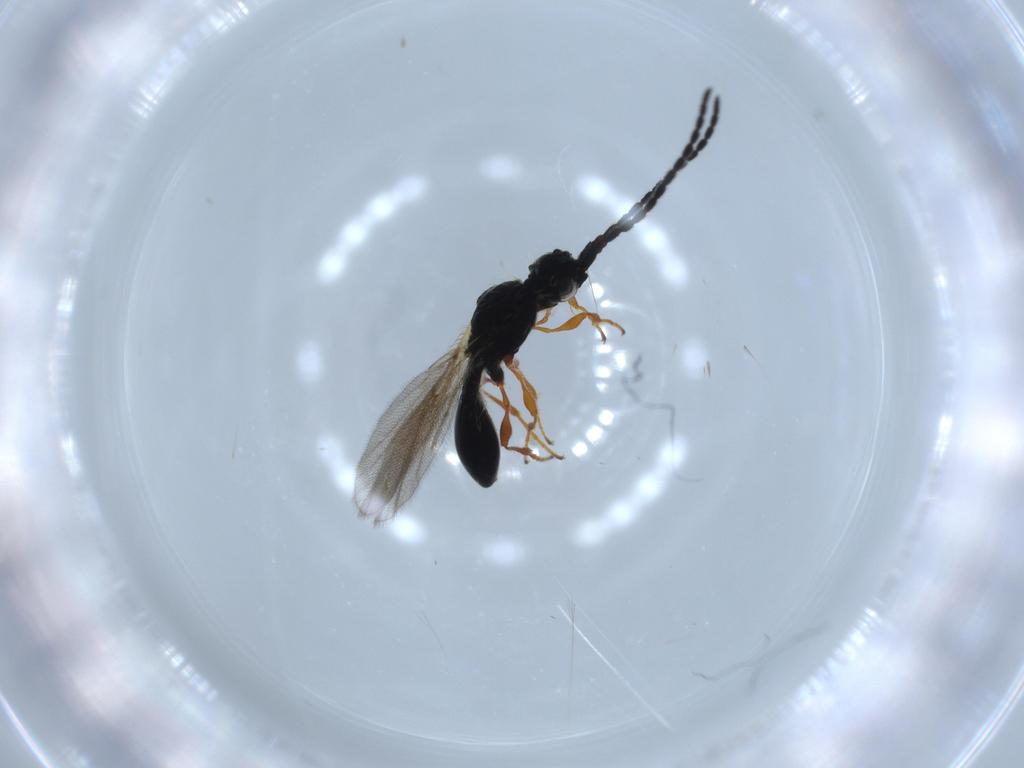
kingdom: Animalia
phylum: Arthropoda
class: Insecta
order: Hymenoptera
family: Diapriidae
